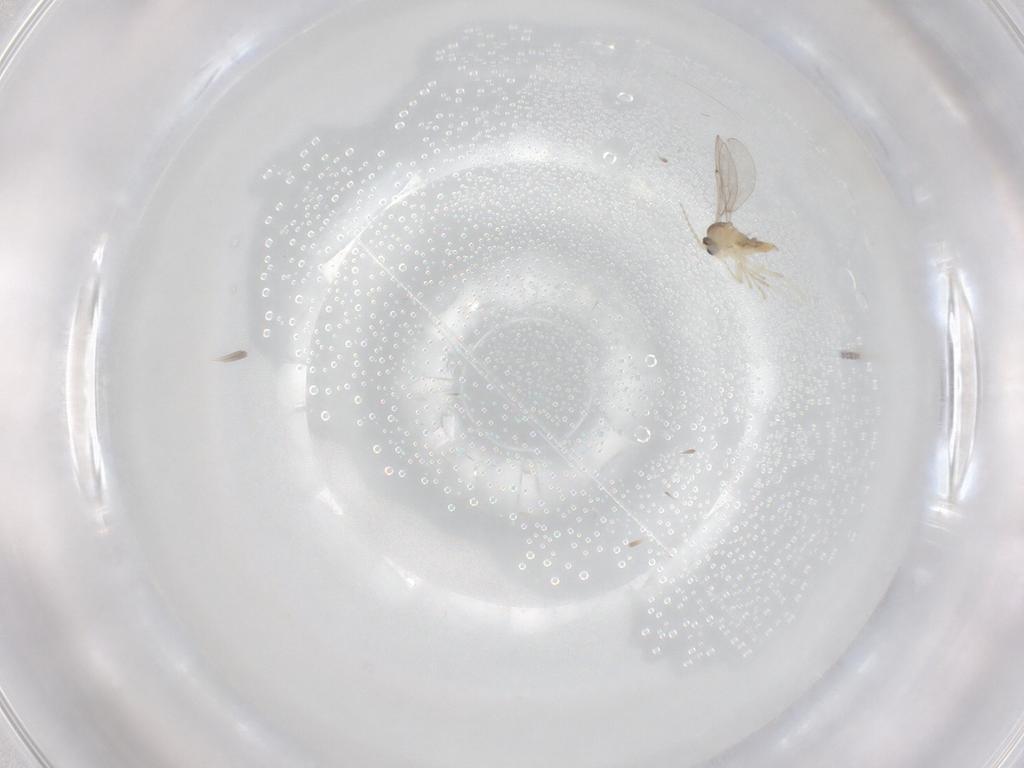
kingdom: Animalia
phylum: Arthropoda
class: Insecta
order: Diptera
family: Cecidomyiidae
